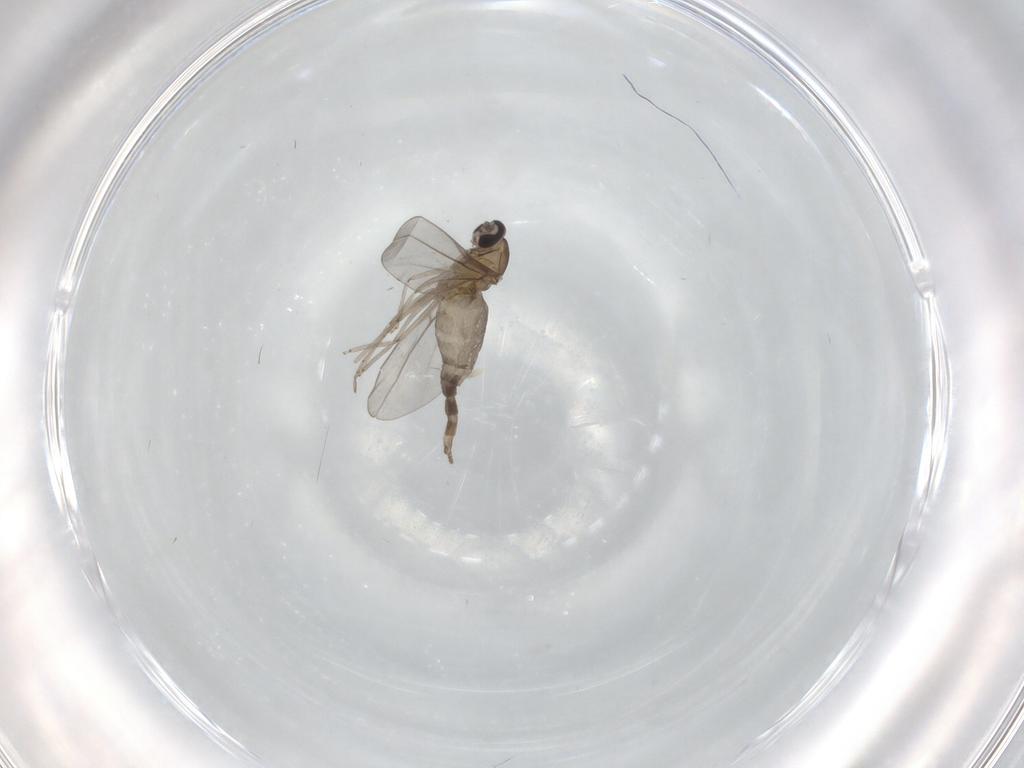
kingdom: Animalia
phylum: Arthropoda
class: Insecta
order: Diptera
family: Cecidomyiidae
